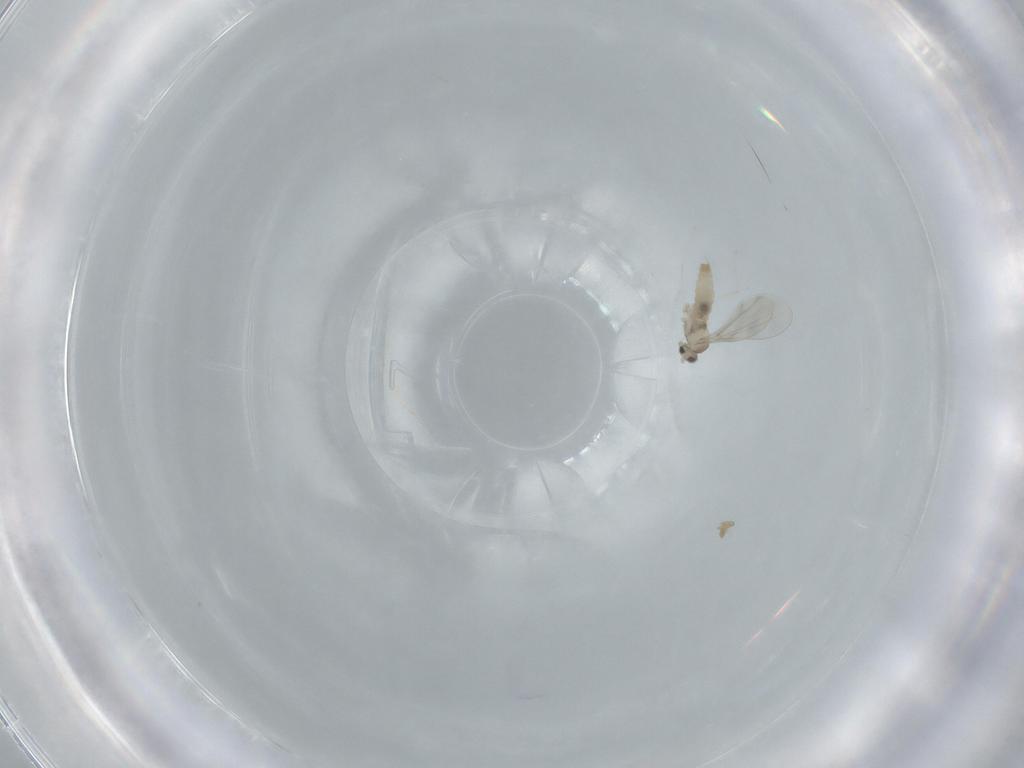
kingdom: Animalia
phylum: Arthropoda
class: Insecta
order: Diptera
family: Cecidomyiidae
